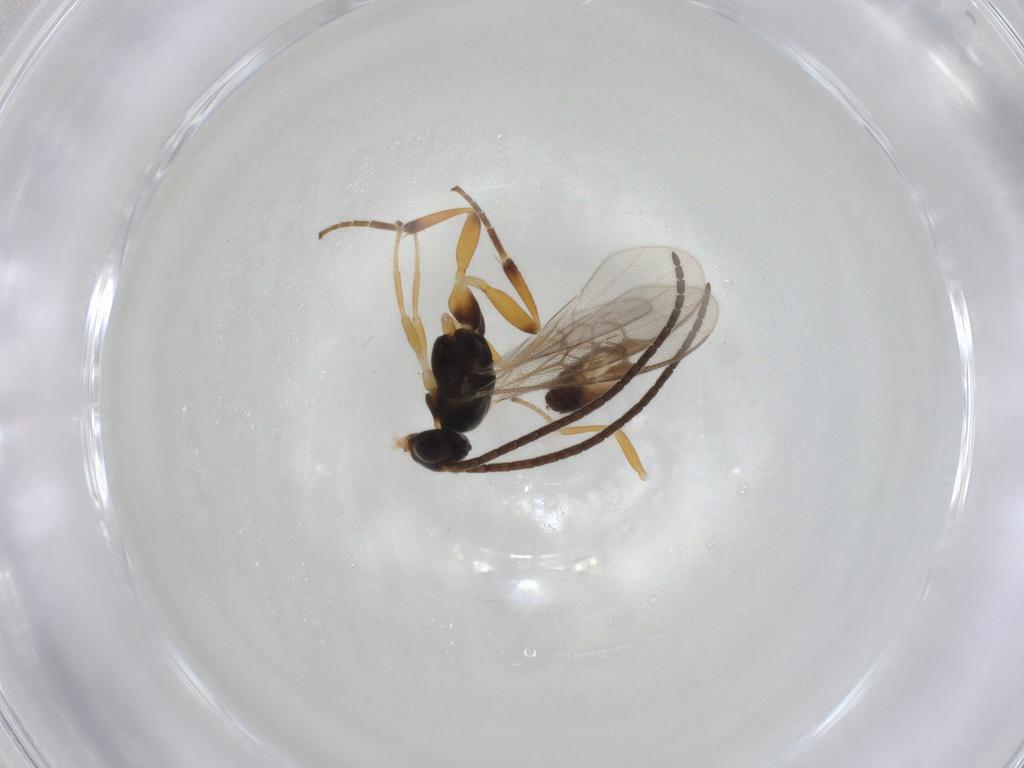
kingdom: Animalia
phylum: Arthropoda
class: Insecta
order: Hymenoptera
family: Braconidae
